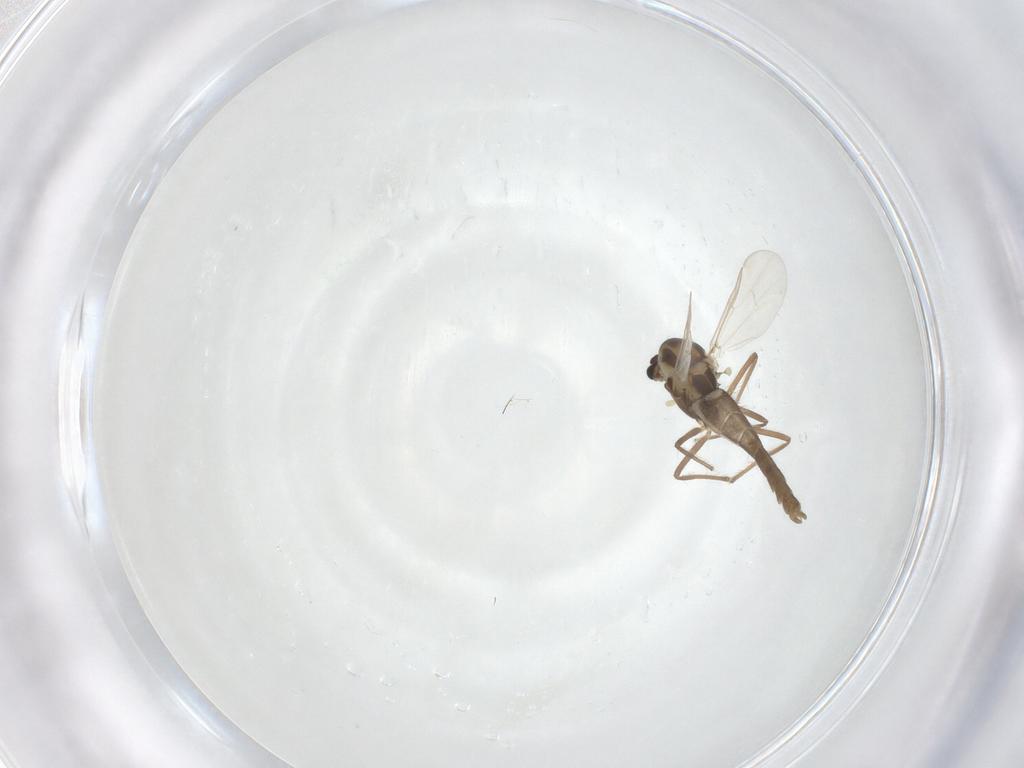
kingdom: Animalia
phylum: Arthropoda
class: Insecta
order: Diptera
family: Chironomidae
